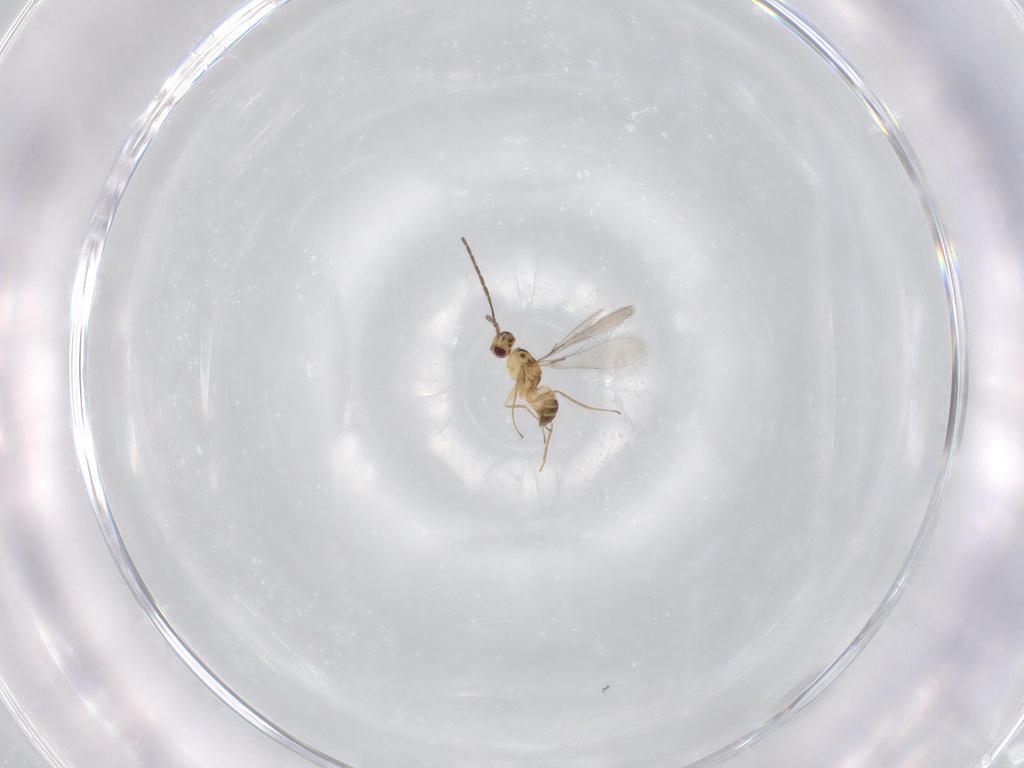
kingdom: Animalia
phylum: Arthropoda
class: Insecta
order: Hymenoptera
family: Mymaridae
